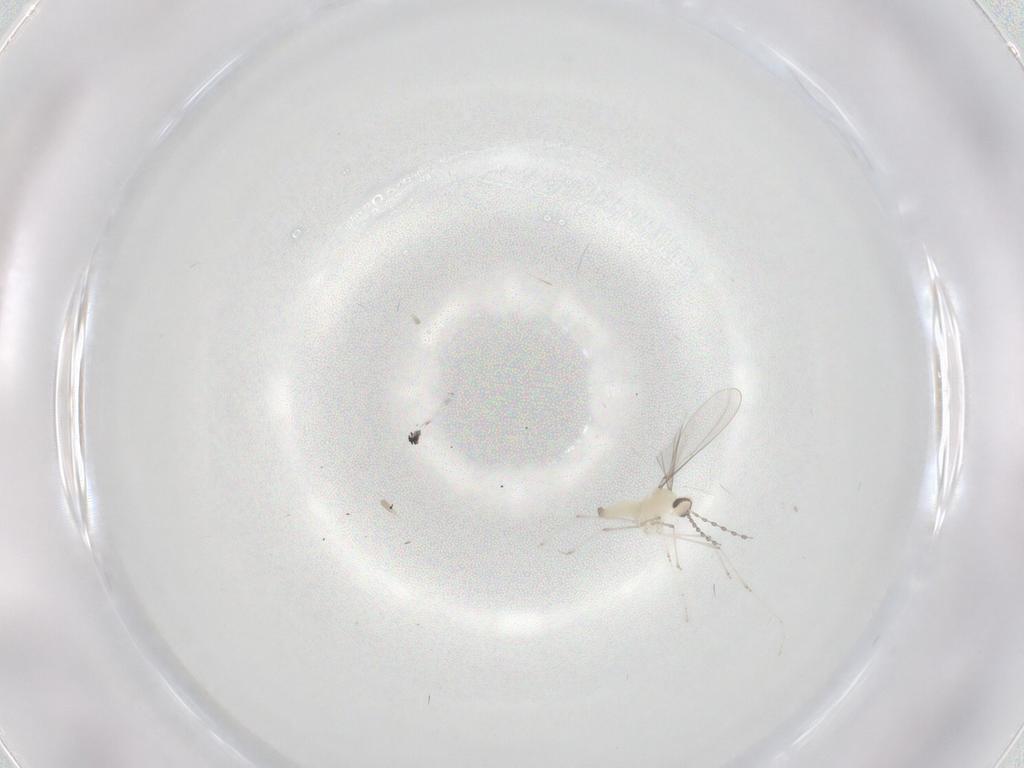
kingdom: Animalia
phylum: Arthropoda
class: Insecta
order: Diptera
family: Cecidomyiidae
